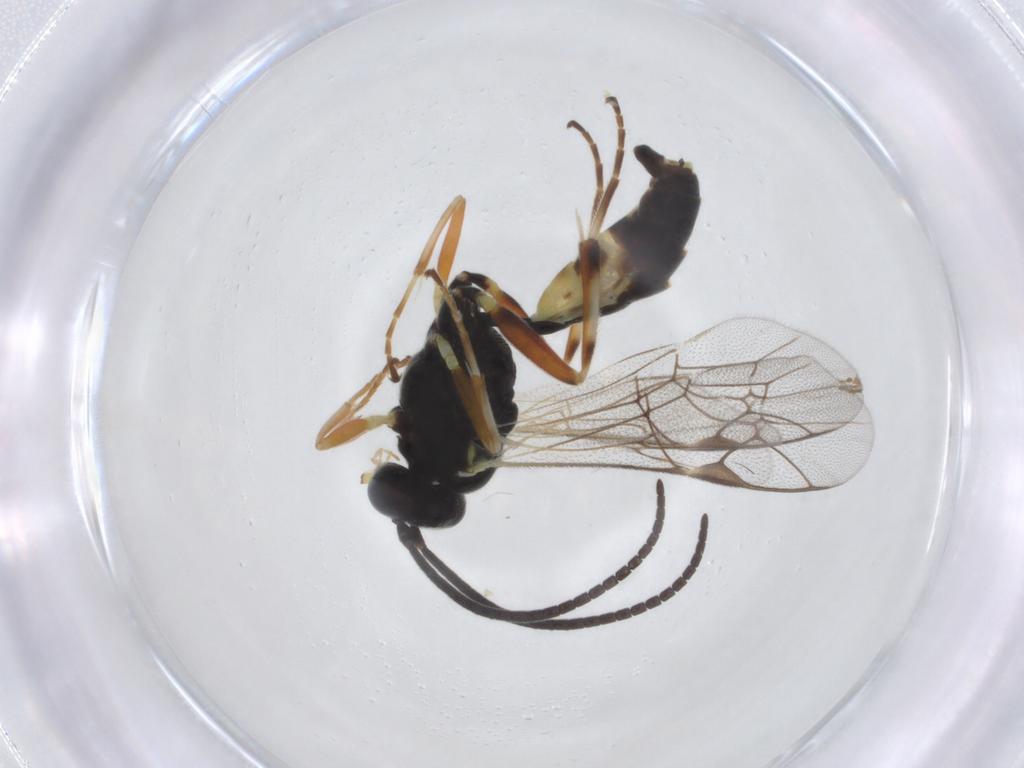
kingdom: Animalia
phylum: Arthropoda
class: Insecta
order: Hymenoptera
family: Ichneumonidae
